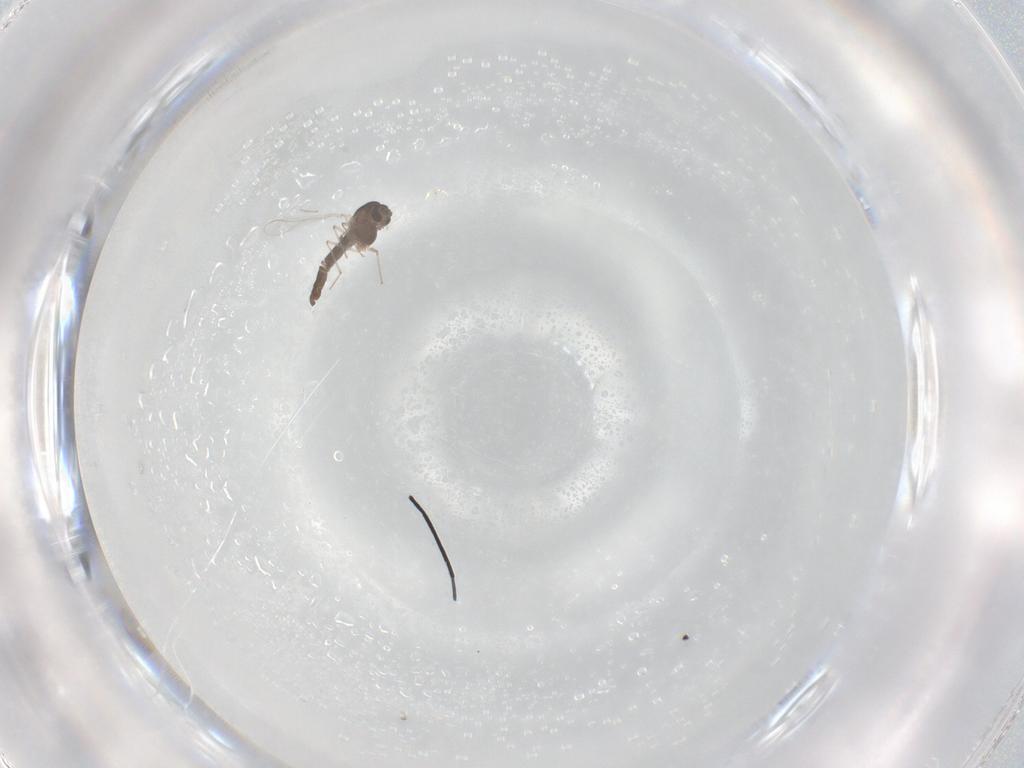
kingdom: Animalia
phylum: Arthropoda
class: Insecta
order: Diptera
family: Chironomidae
